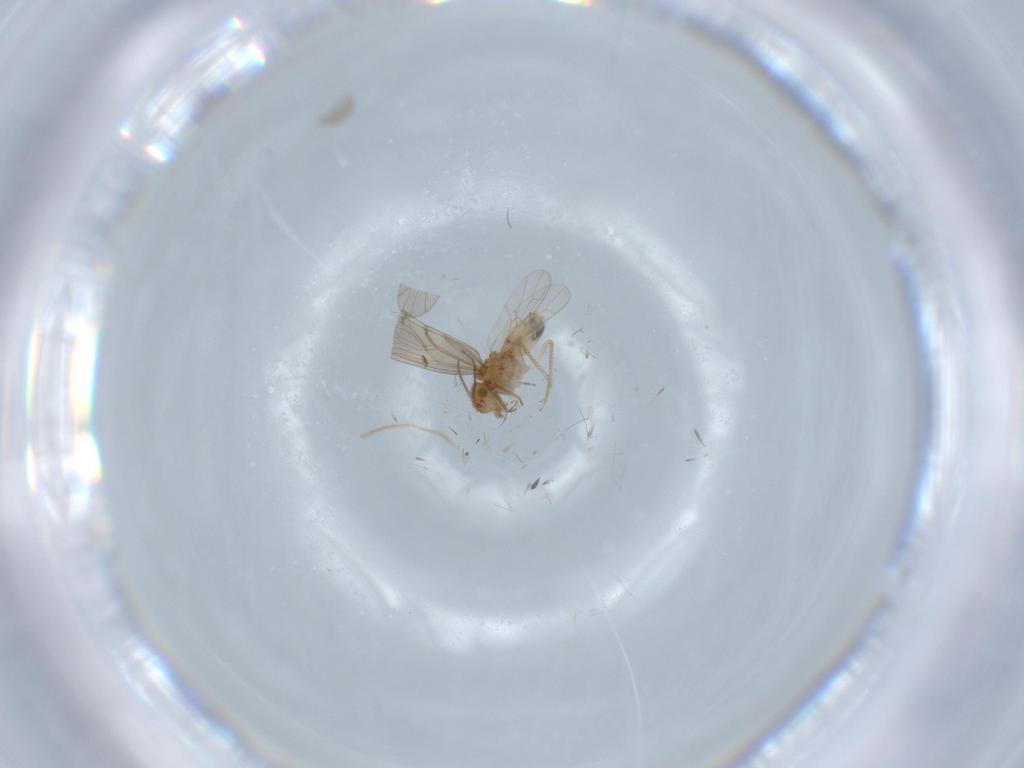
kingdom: Animalia
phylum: Arthropoda
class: Insecta
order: Psocodea
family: Ectopsocidae
